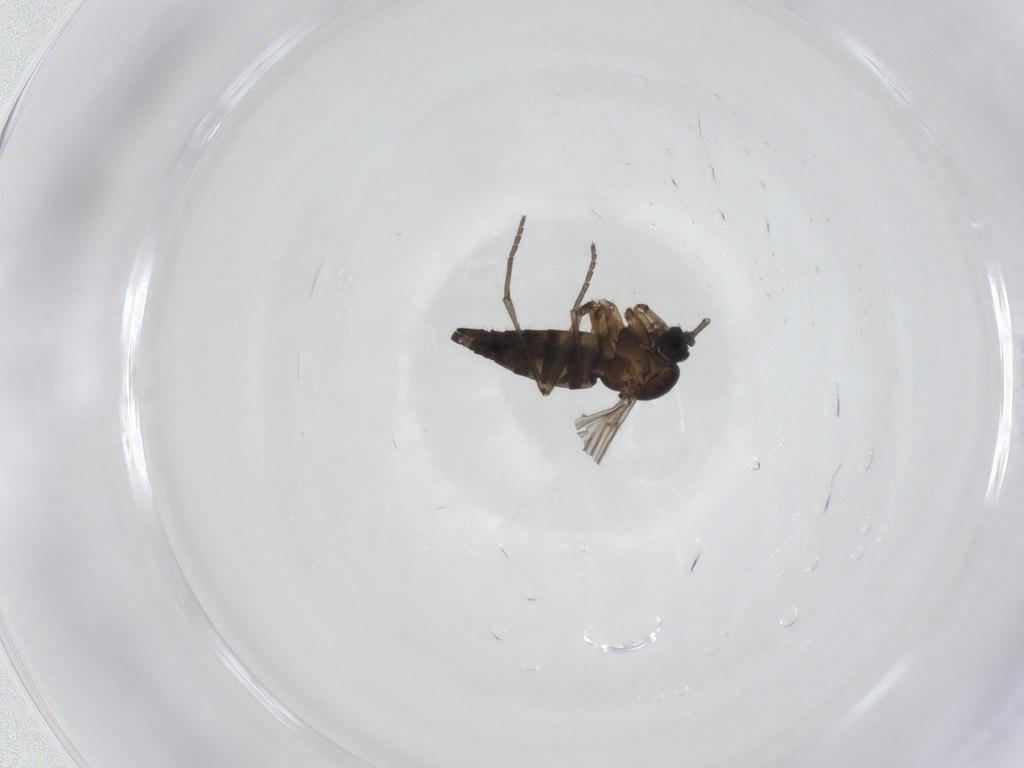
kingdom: Animalia
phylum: Arthropoda
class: Insecta
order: Diptera
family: Sciaridae
